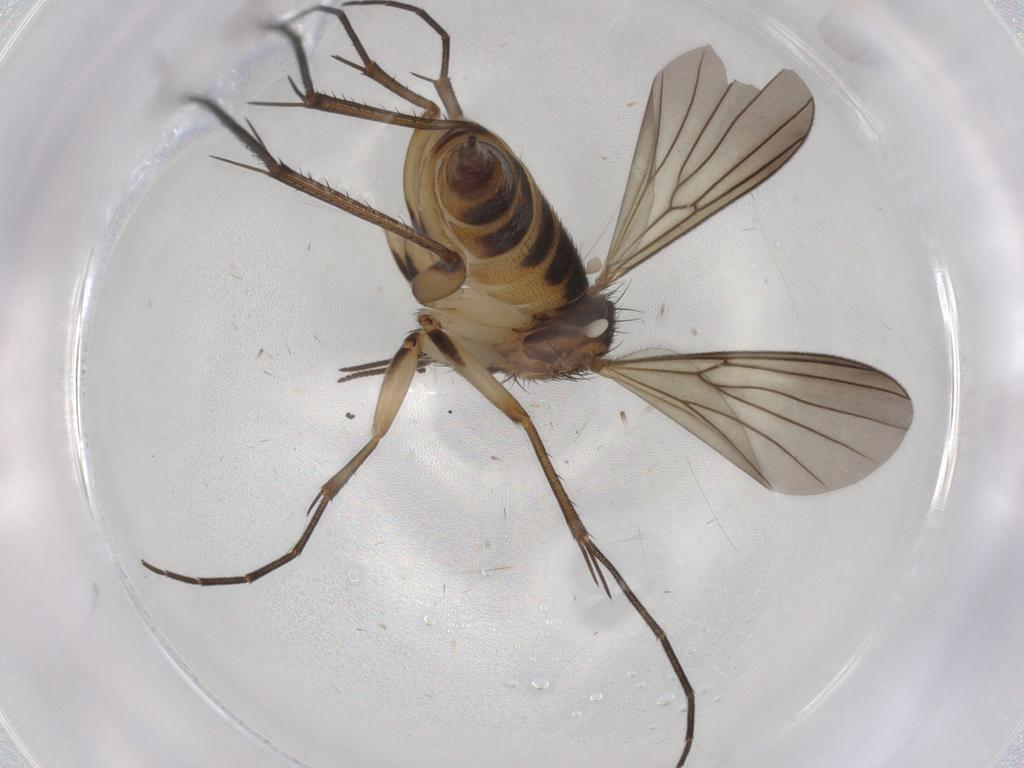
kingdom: Animalia
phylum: Arthropoda
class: Insecta
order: Diptera
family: Mycetophilidae
